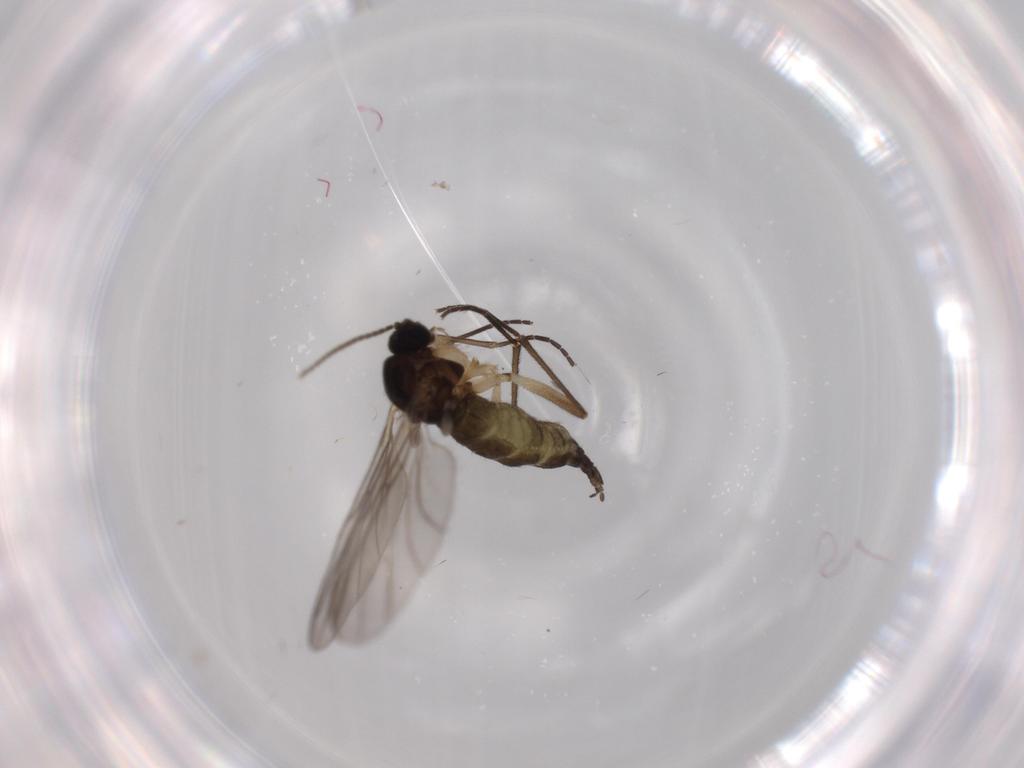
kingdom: Animalia
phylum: Arthropoda
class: Insecta
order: Diptera
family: Sciaridae
